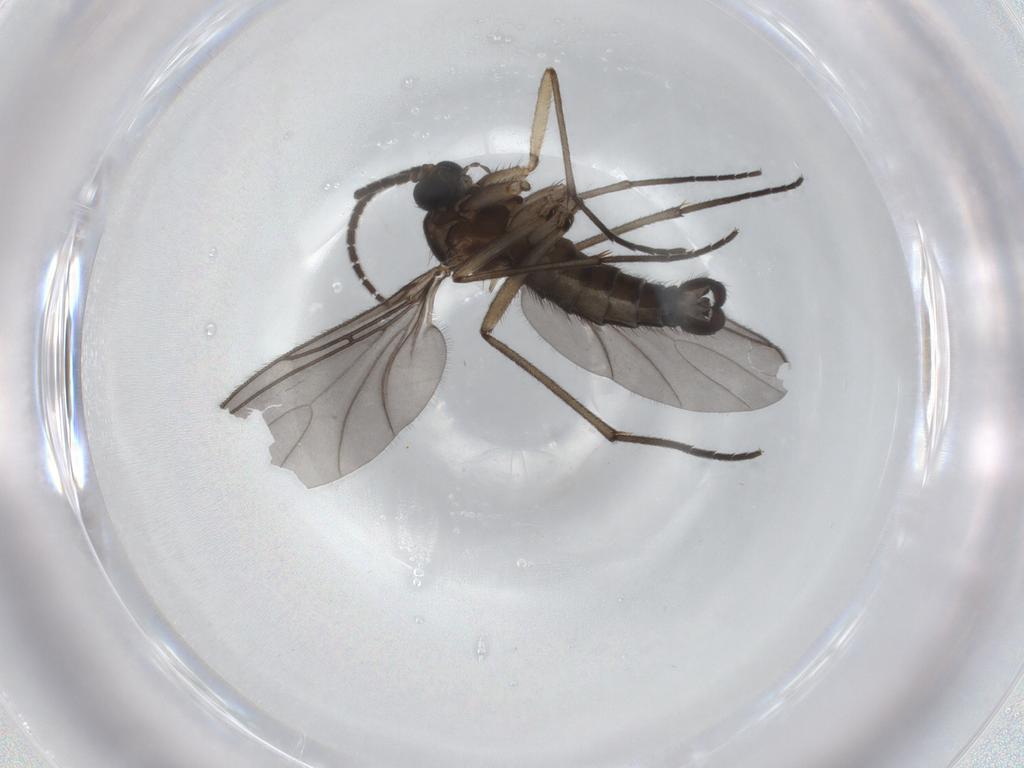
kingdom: Animalia
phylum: Arthropoda
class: Insecta
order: Diptera
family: Sciaridae
